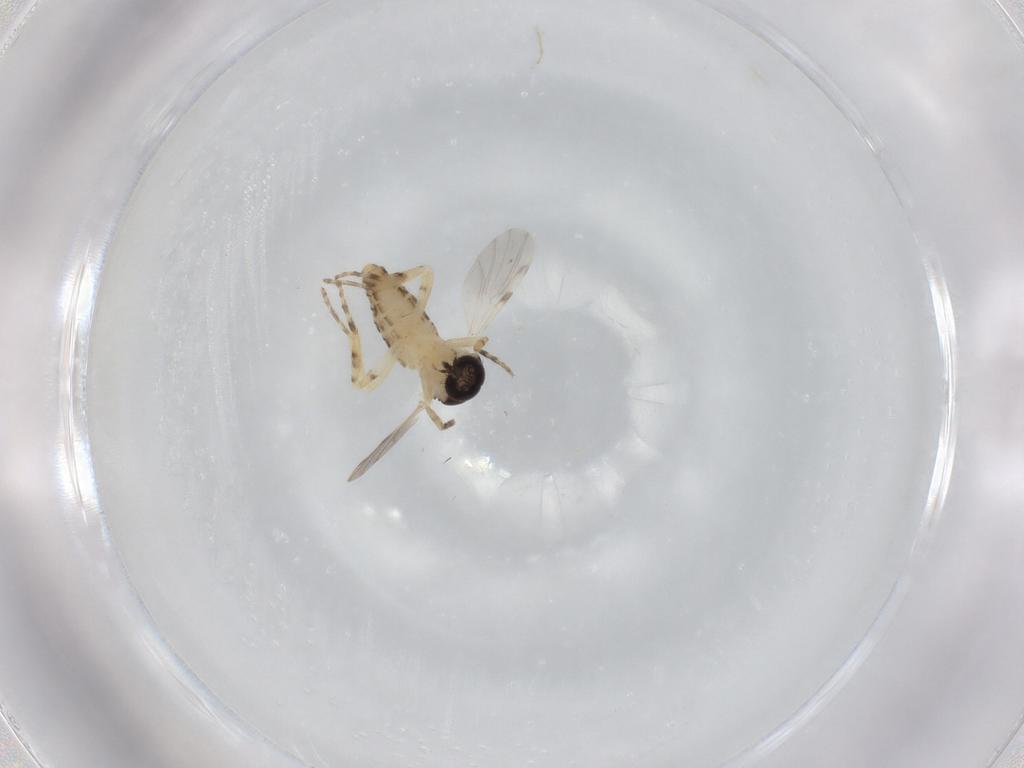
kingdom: Animalia
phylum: Arthropoda
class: Insecta
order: Diptera
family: Ceratopogonidae
